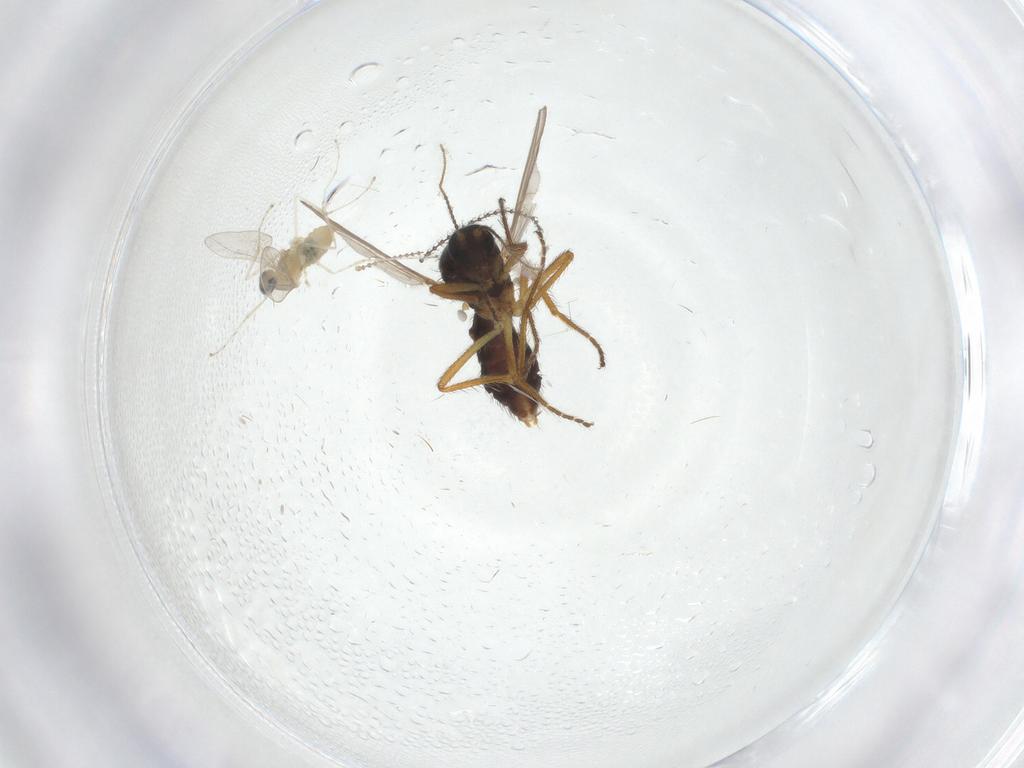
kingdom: Animalia
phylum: Arthropoda
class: Insecta
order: Diptera
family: Ceratopogonidae
